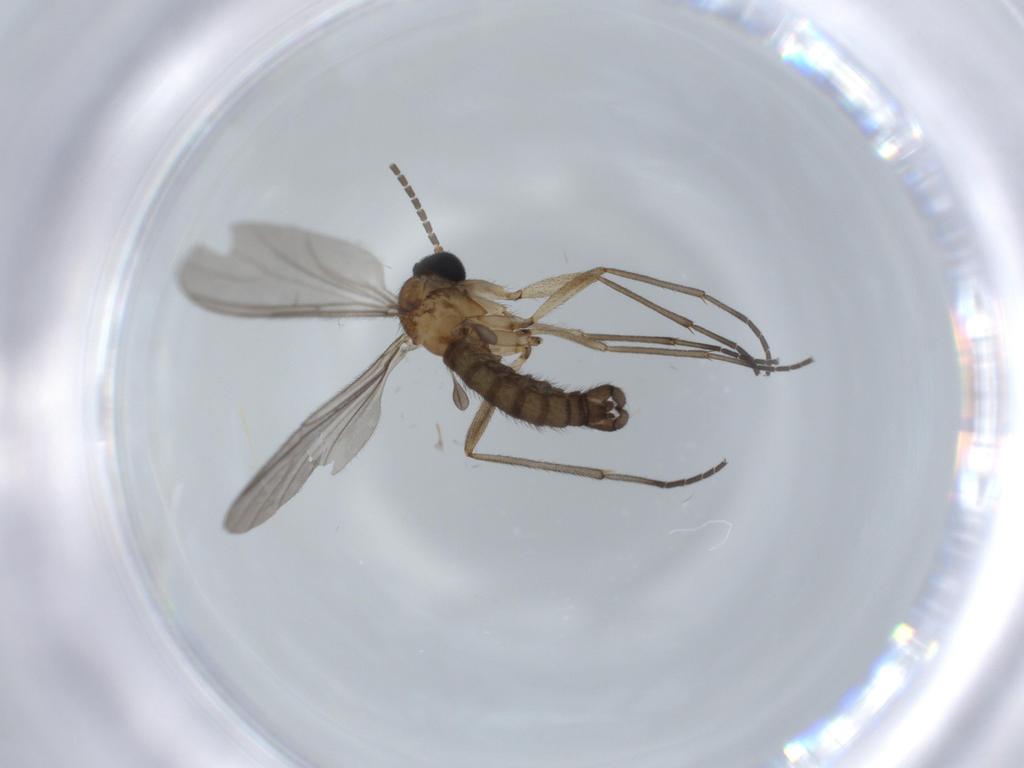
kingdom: Animalia
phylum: Arthropoda
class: Insecta
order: Diptera
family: Sciaridae
